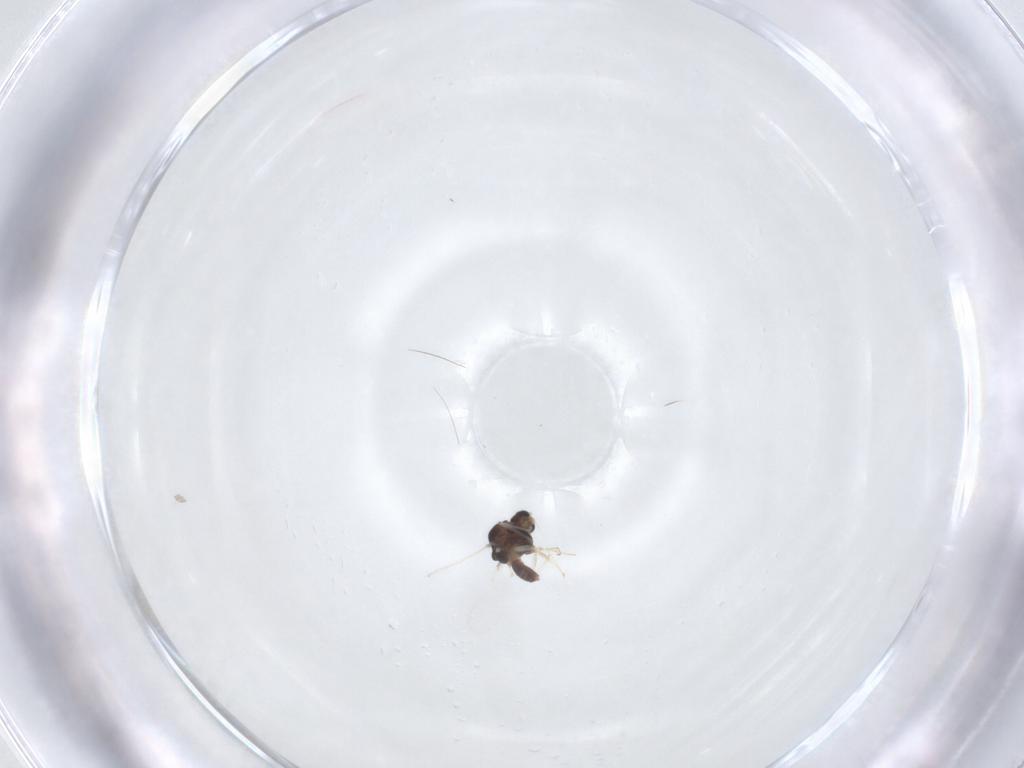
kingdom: Animalia
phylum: Arthropoda
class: Insecta
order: Diptera
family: Chironomidae
